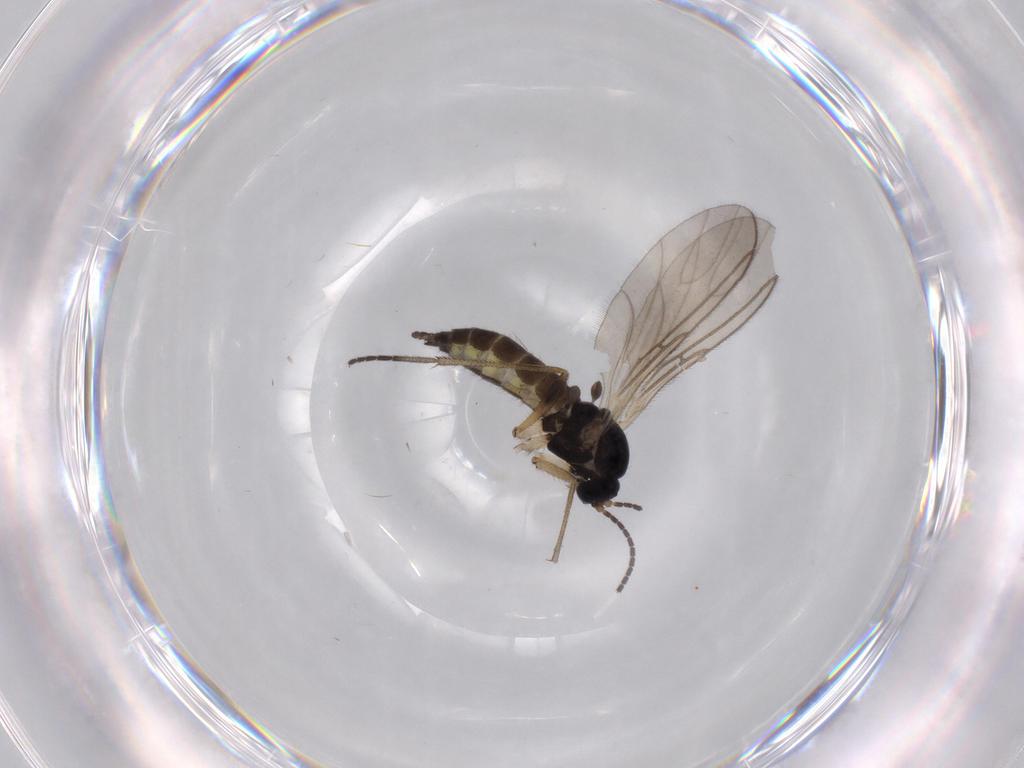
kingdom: Animalia
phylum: Arthropoda
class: Insecta
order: Diptera
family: Sciaridae
